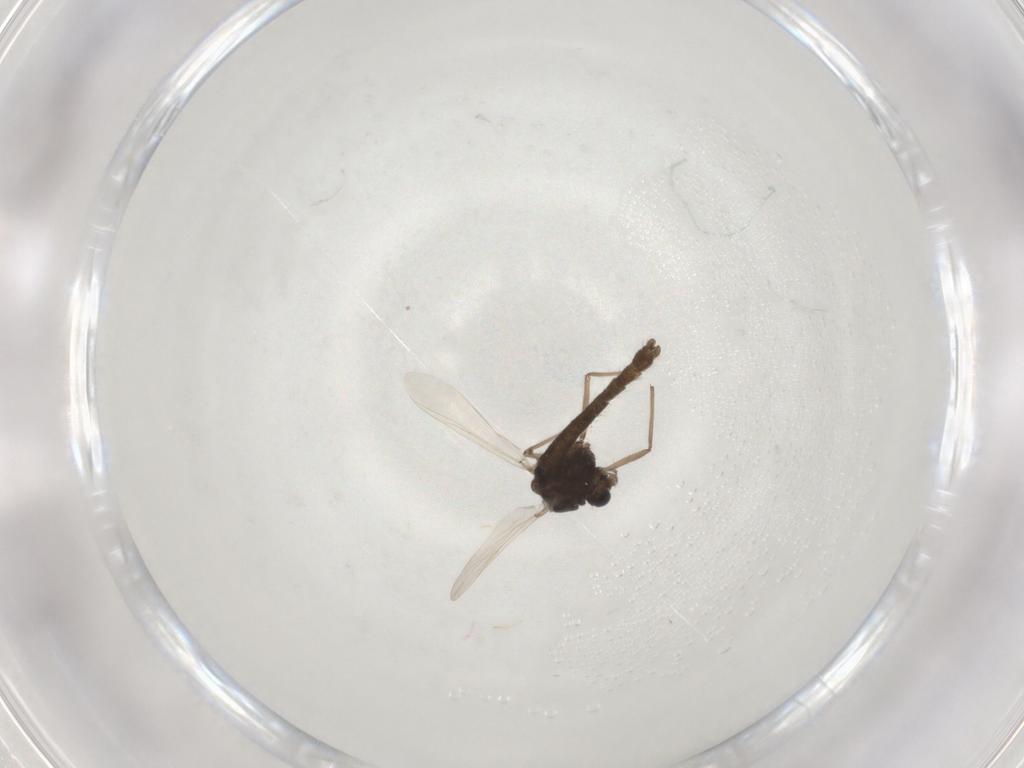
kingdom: Animalia
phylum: Arthropoda
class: Insecta
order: Diptera
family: Chironomidae
